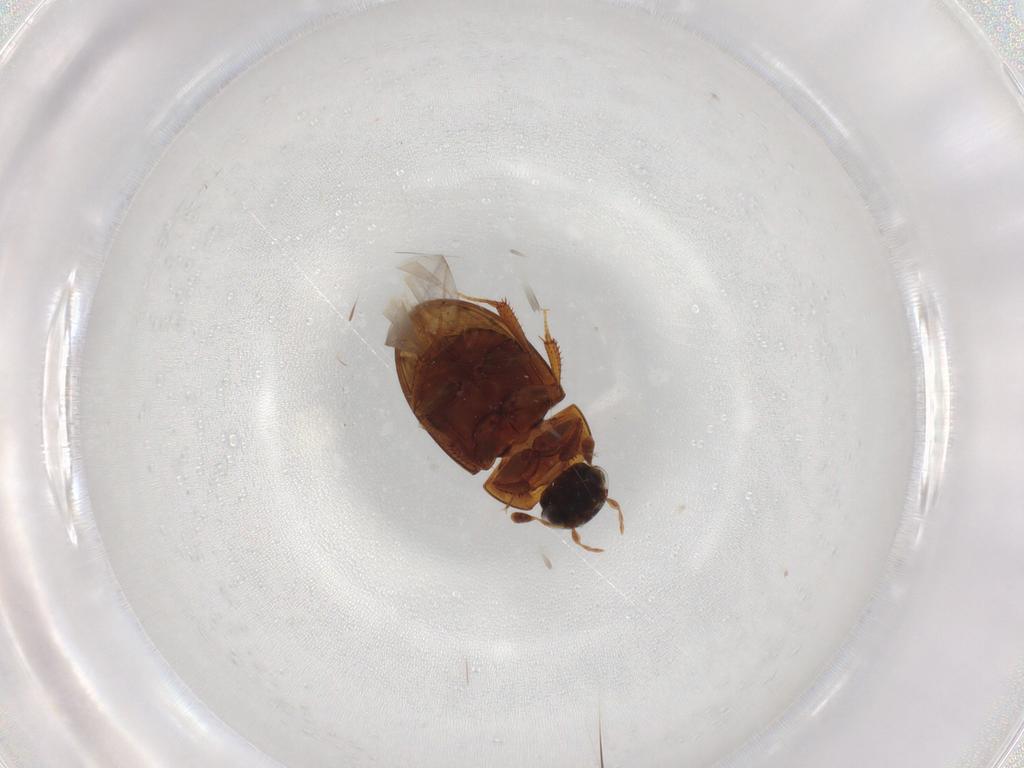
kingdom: Animalia
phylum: Arthropoda
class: Insecta
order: Coleoptera
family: Hydrophilidae
